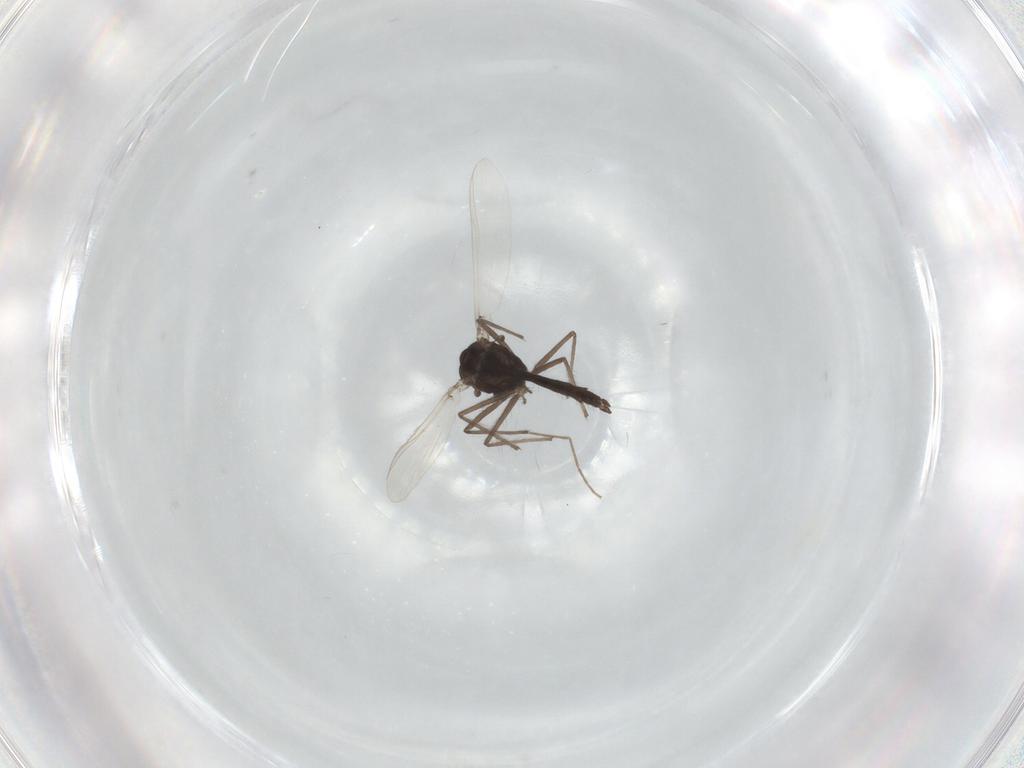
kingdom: Animalia
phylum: Arthropoda
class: Insecta
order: Diptera
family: Chironomidae
